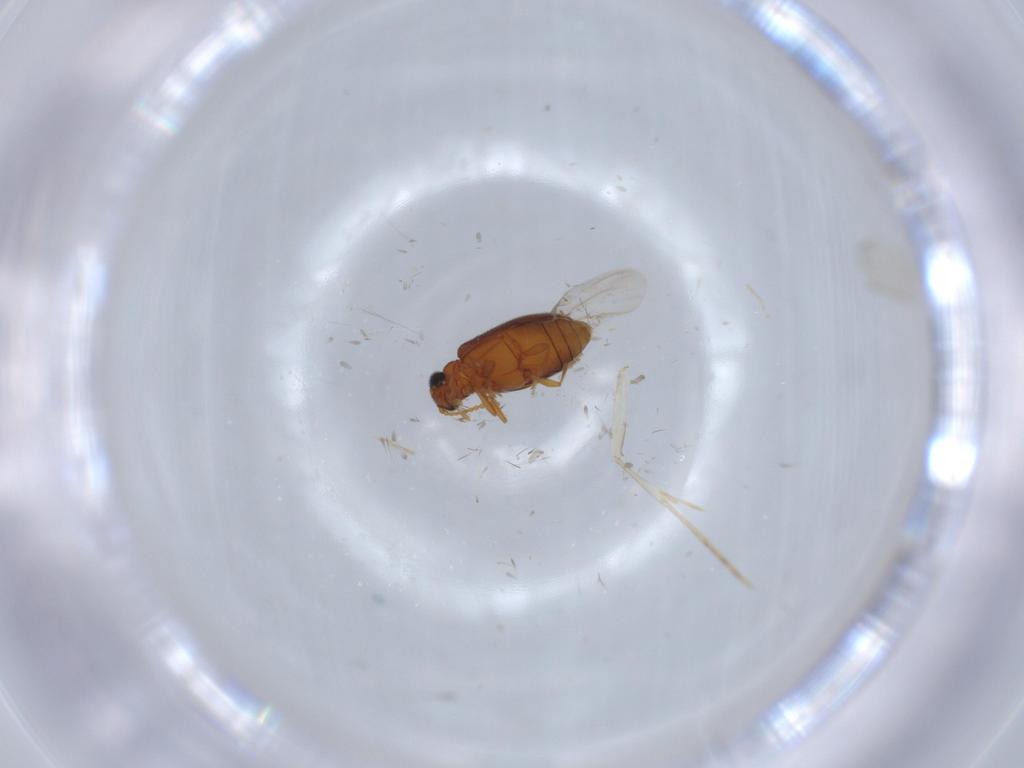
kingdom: Animalia
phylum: Arthropoda
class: Insecta
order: Coleoptera
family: Aderidae
